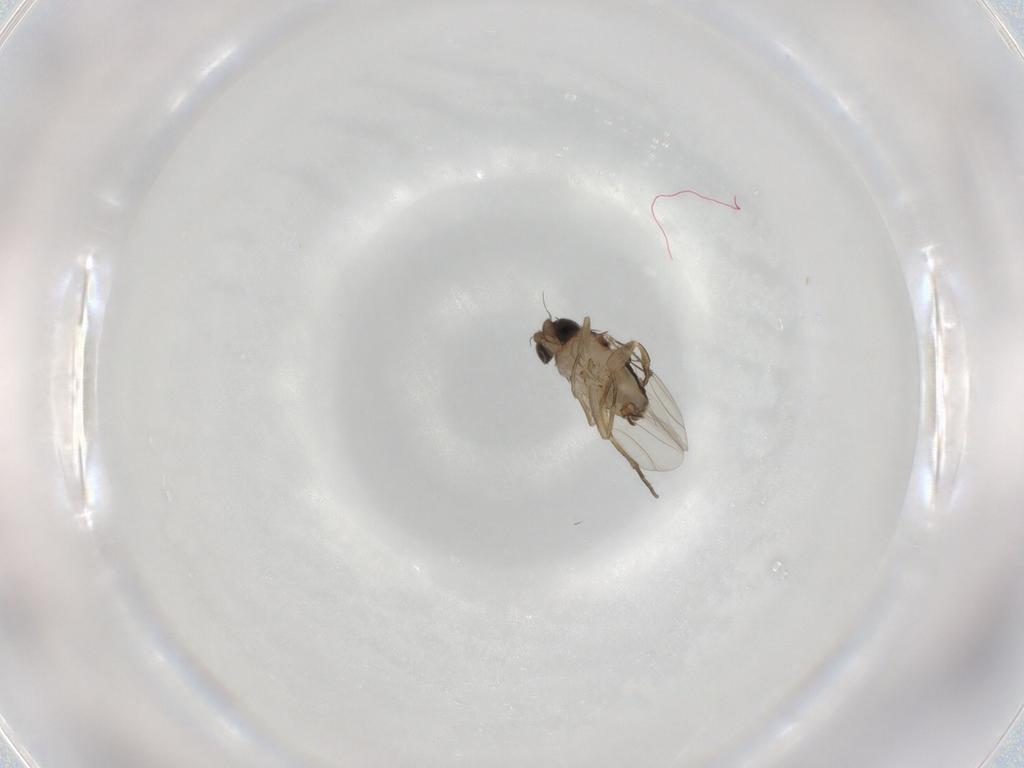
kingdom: Animalia
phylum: Arthropoda
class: Insecta
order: Diptera
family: Phoridae
